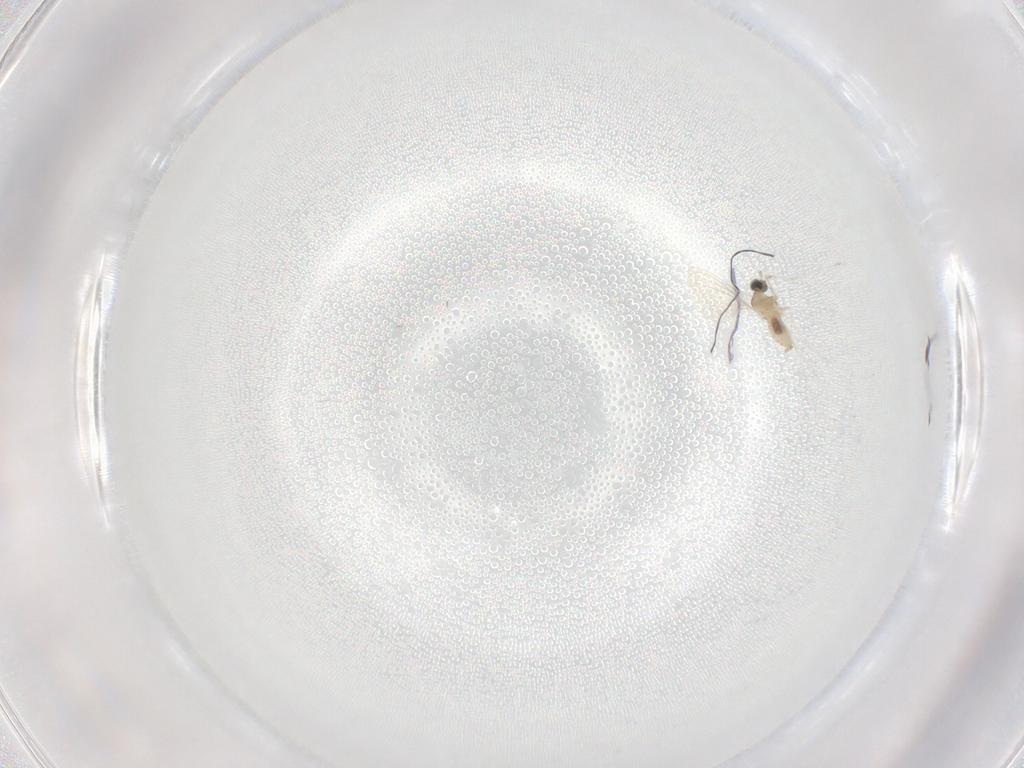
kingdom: Animalia
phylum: Arthropoda
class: Insecta
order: Diptera
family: Cecidomyiidae
